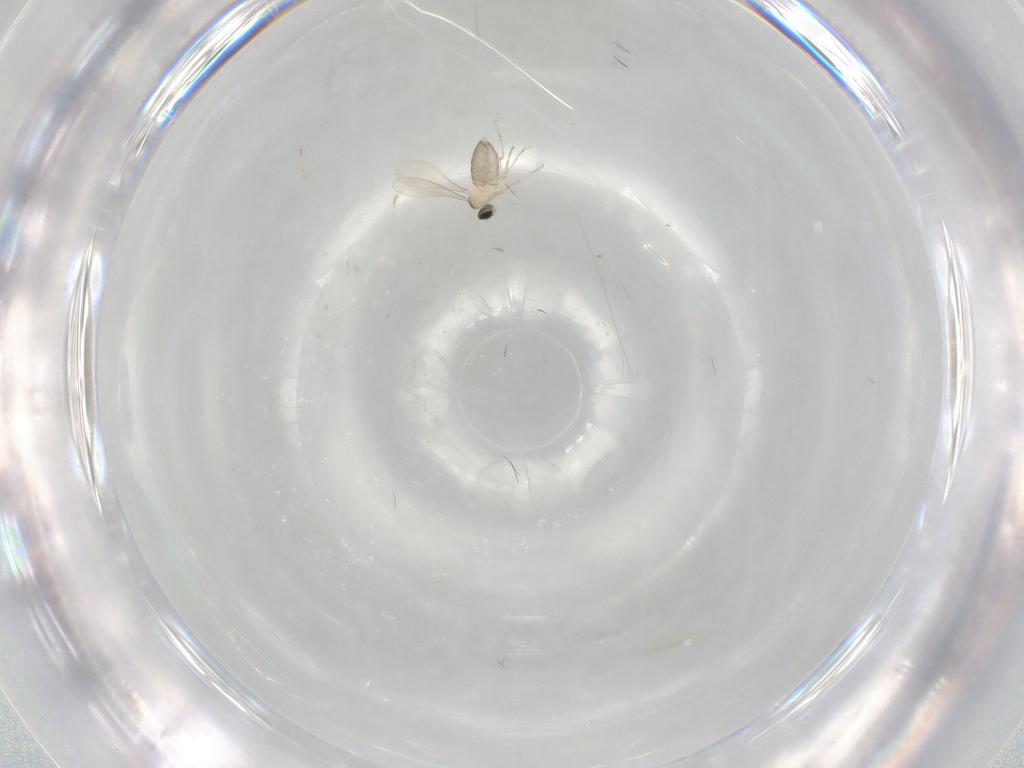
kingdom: Animalia
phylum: Arthropoda
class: Insecta
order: Diptera
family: Cecidomyiidae
